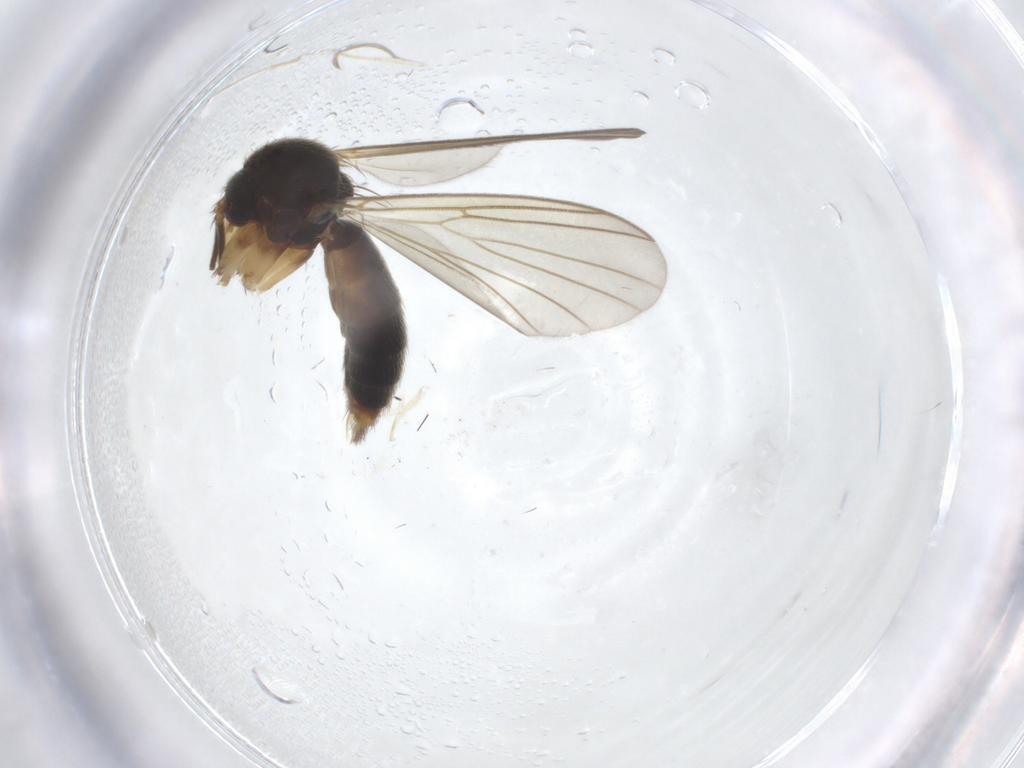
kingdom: Animalia
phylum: Arthropoda
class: Insecta
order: Diptera
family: Mycetophilidae
